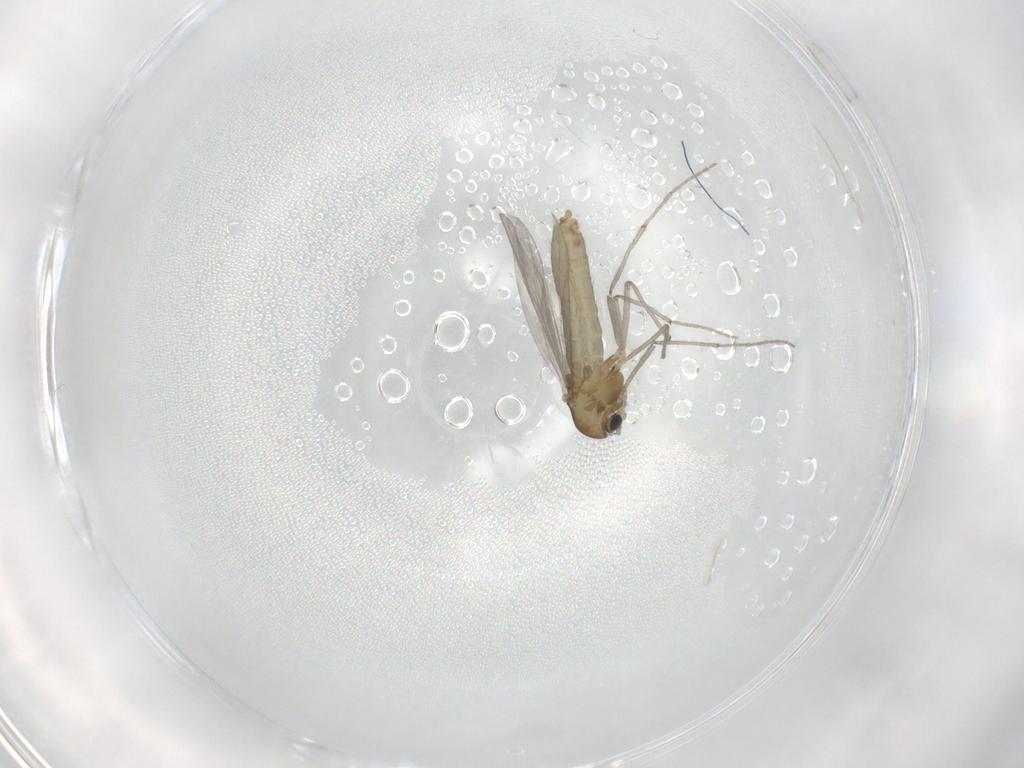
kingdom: Animalia
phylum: Arthropoda
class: Insecta
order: Diptera
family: Chironomidae
